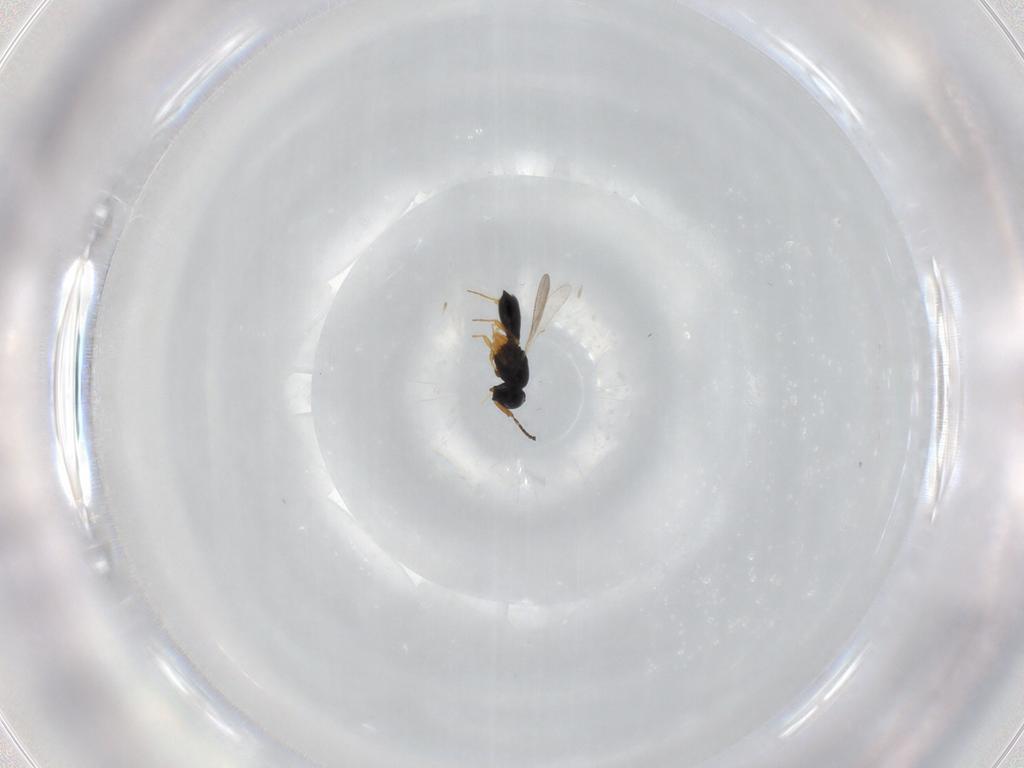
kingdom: Animalia
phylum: Arthropoda
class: Insecta
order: Hymenoptera
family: Scelionidae
